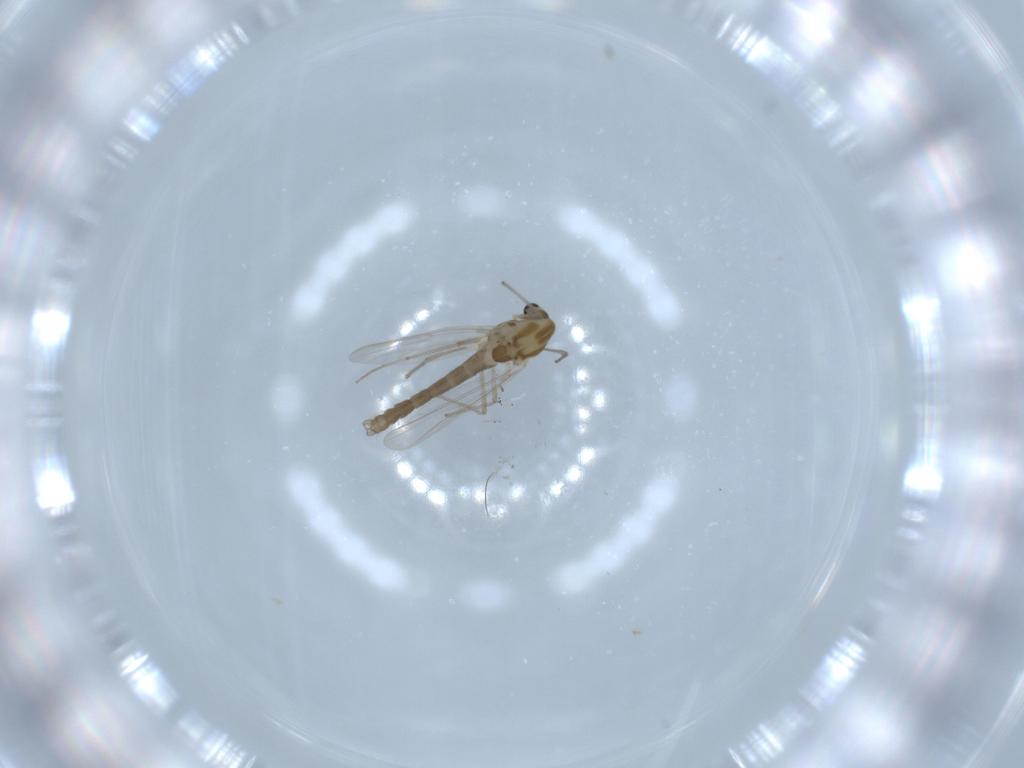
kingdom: Animalia
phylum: Arthropoda
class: Insecta
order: Diptera
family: Chironomidae
